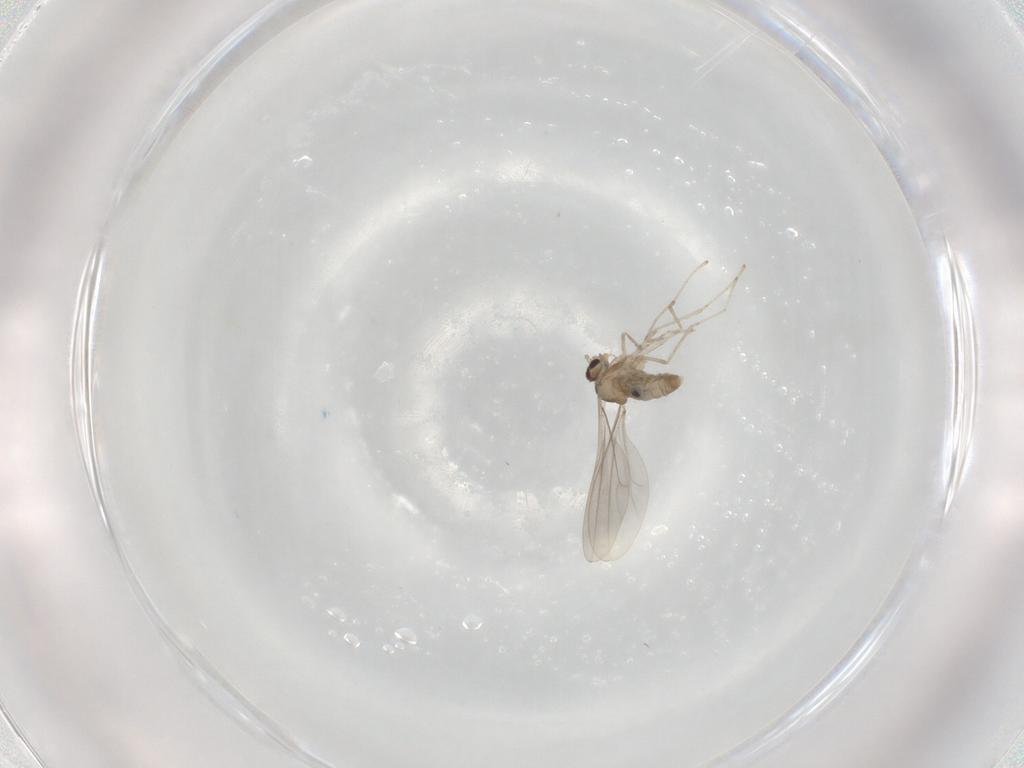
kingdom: Animalia
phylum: Arthropoda
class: Insecta
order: Diptera
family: Cecidomyiidae
